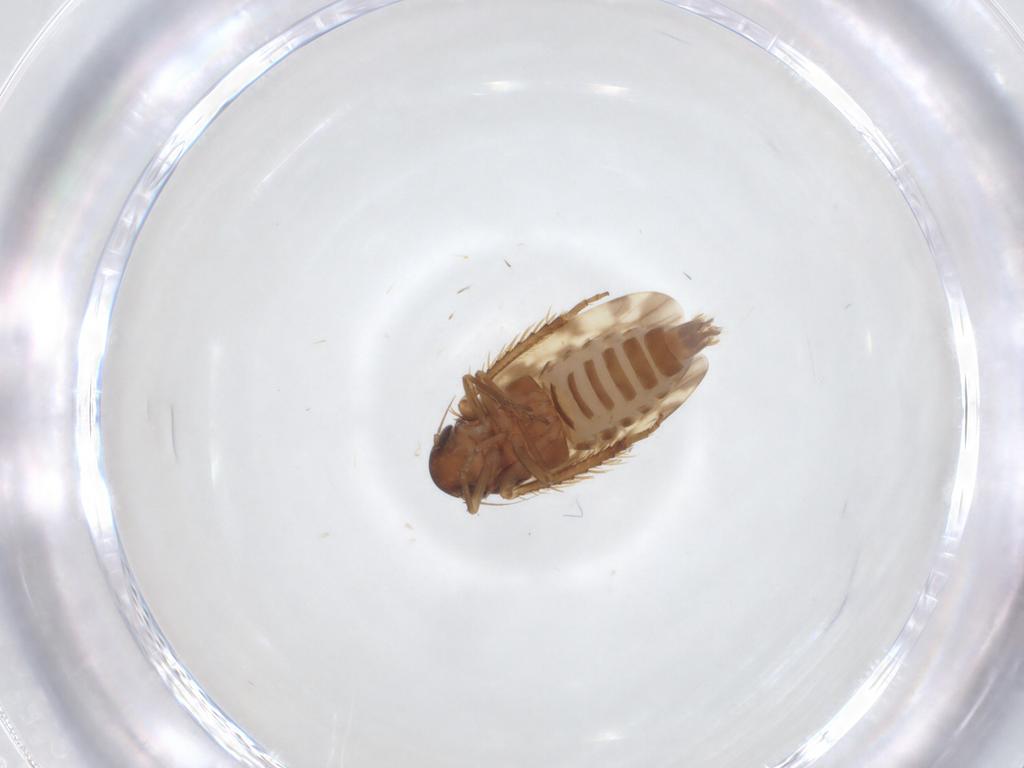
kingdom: Animalia
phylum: Arthropoda
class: Insecta
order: Hemiptera
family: Cicadellidae
